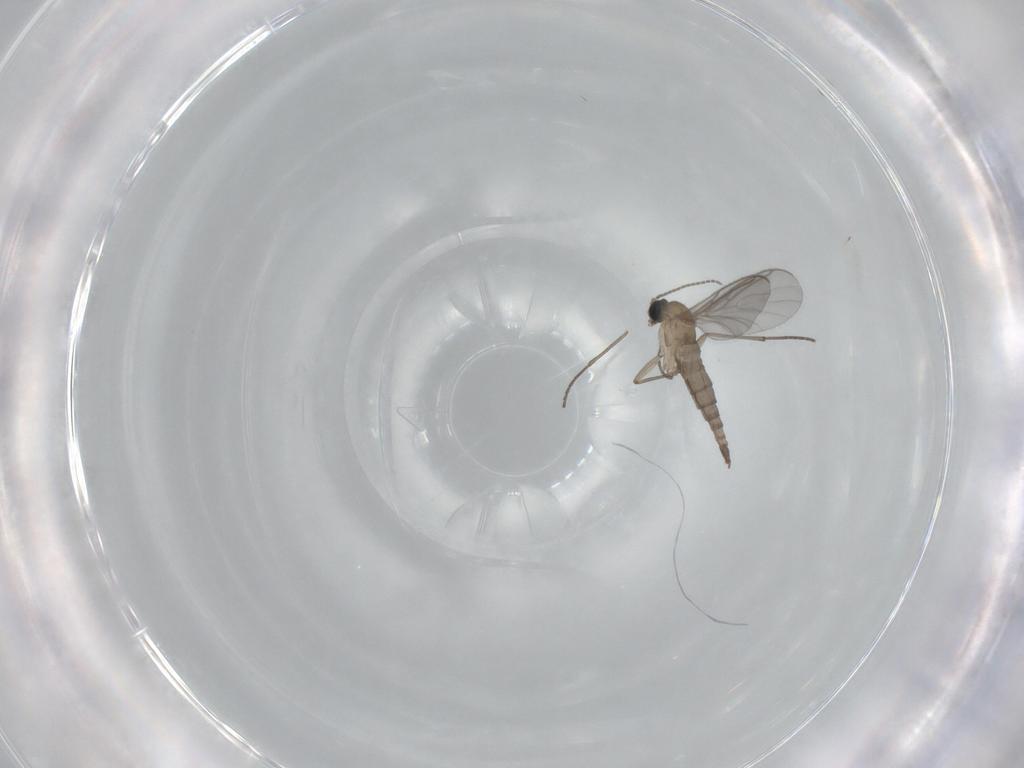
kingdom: Animalia
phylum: Arthropoda
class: Insecta
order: Diptera
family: Sciaridae
